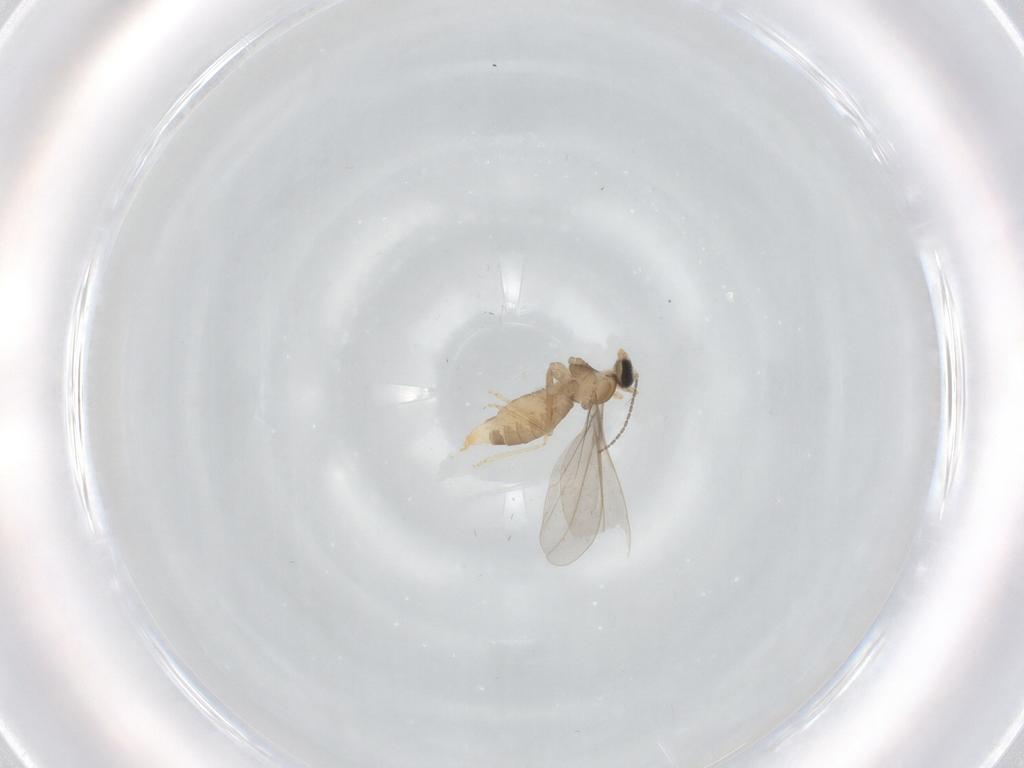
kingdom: Animalia
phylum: Arthropoda
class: Insecta
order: Diptera
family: Cecidomyiidae
